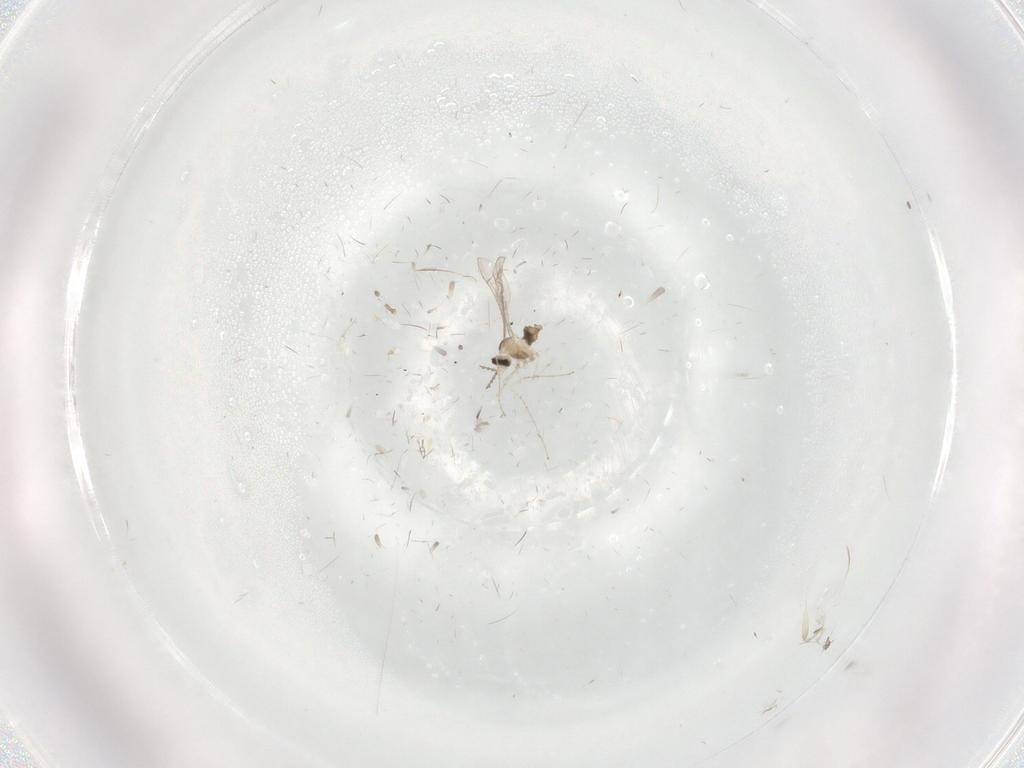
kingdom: Animalia
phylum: Arthropoda
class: Insecta
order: Diptera
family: Cecidomyiidae
